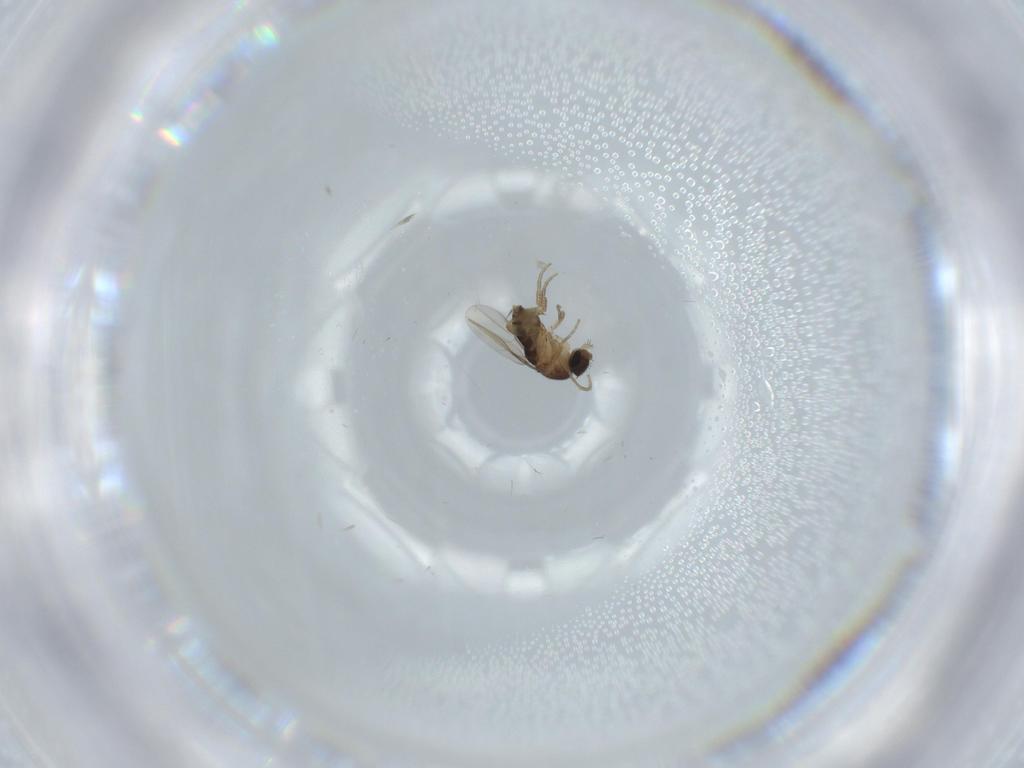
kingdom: Animalia
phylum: Arthropoda
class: Insecta
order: Diptera
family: Phoridae
